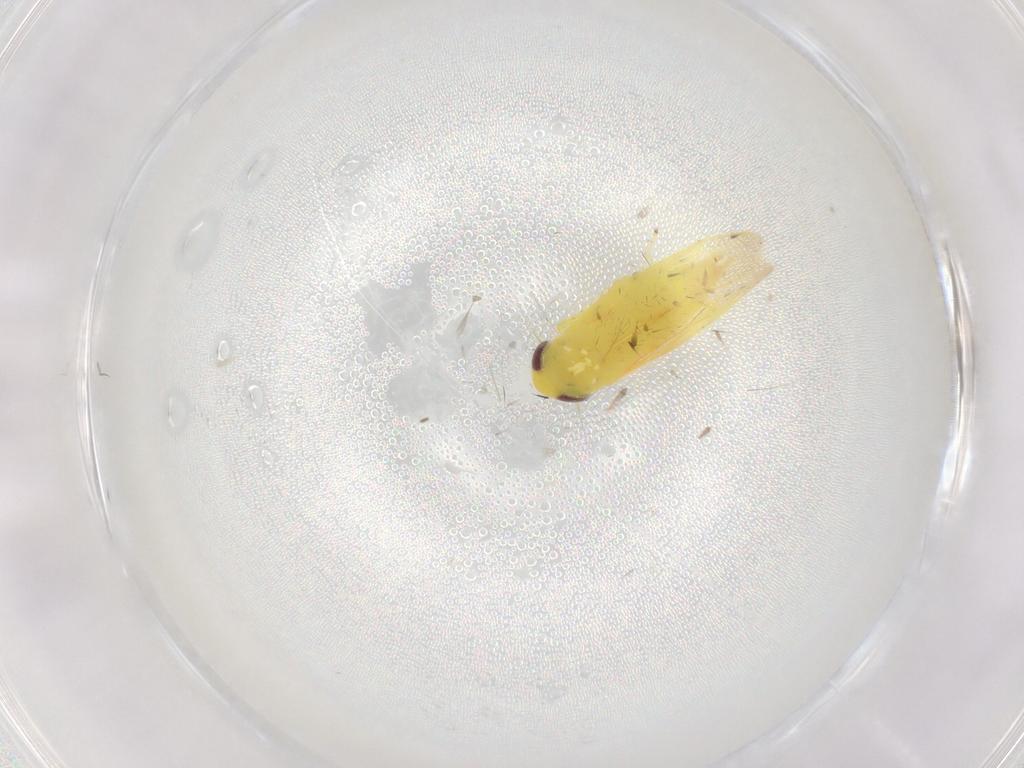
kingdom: Animalia
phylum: Arthropoda
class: Insecta
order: Hemiptera
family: Cicadellidae
